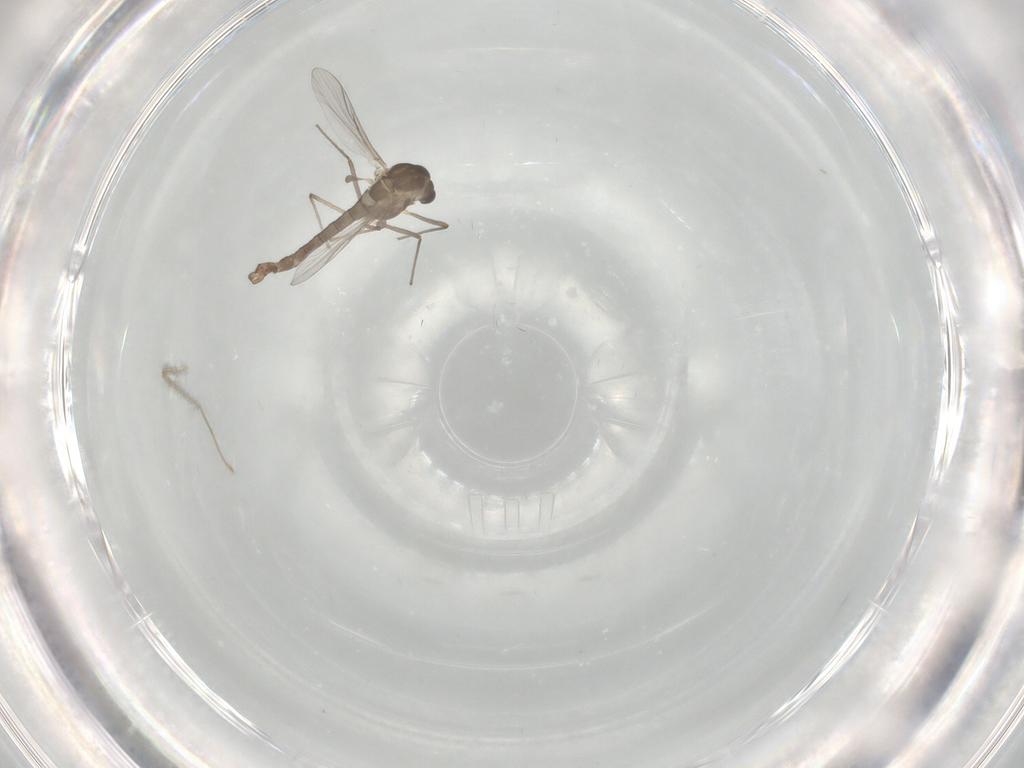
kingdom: Animalia
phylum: Arthropoda
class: Insecta
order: Diptera
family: Chironomidae
